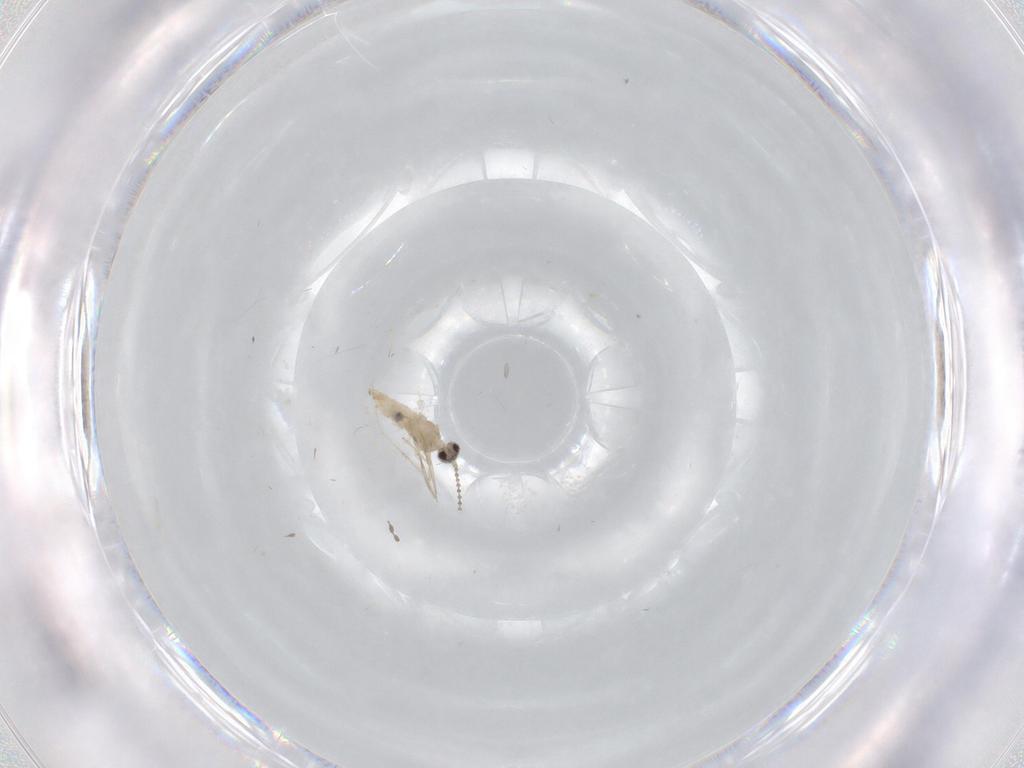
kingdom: Animalia
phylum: Arthropoda
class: Insecta
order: Diptera
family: Cecidomyiidae
